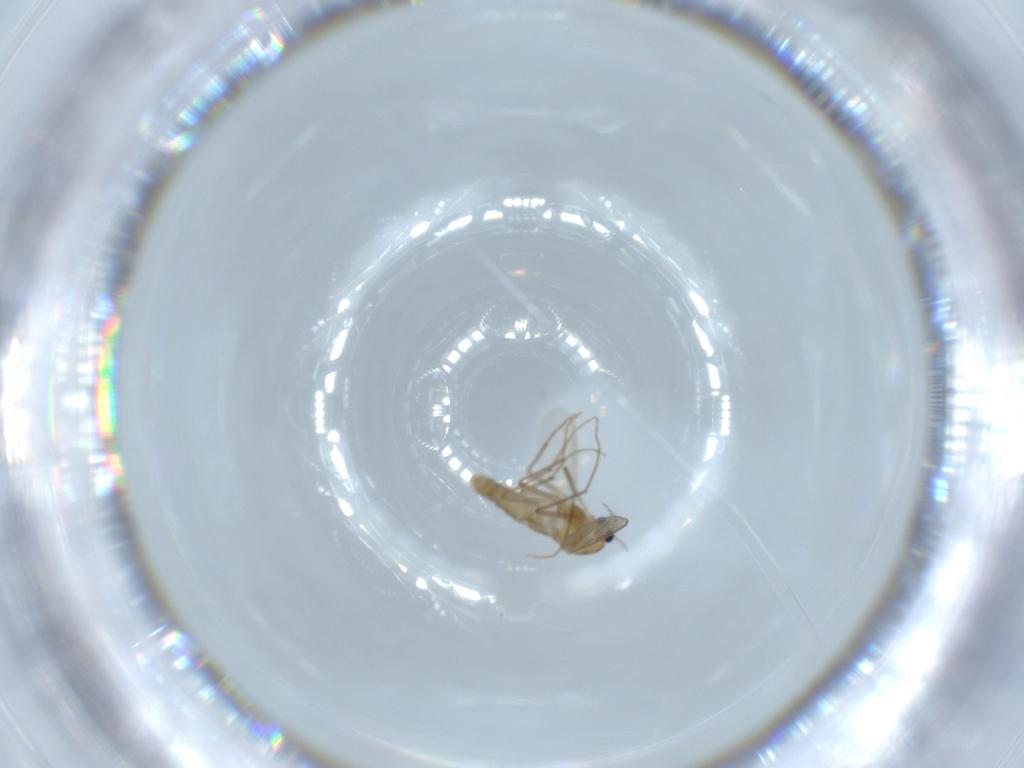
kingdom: Animalia
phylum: Arthropoda
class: Insecta
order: Diptera
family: Chironomidae
